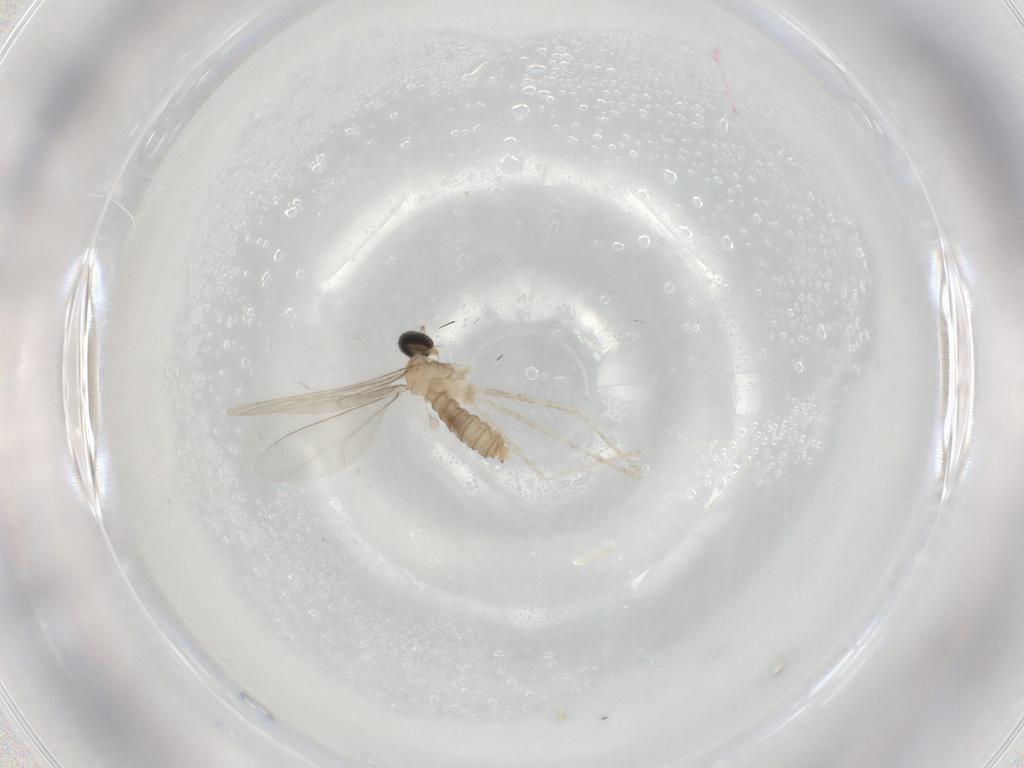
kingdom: Animalia
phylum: Arthropoda
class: Insecta
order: Diptera
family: Cecidomyiidae
